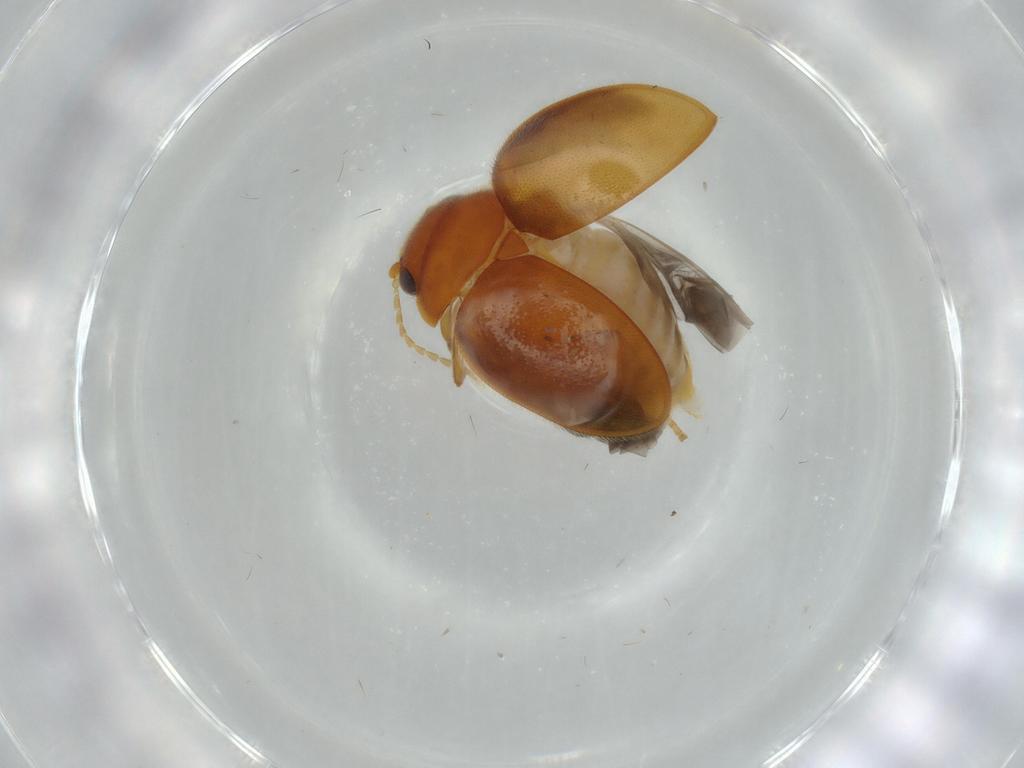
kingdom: Animalia
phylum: Arthropoda
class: Insecta
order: Coleoptera
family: Scirtidae
